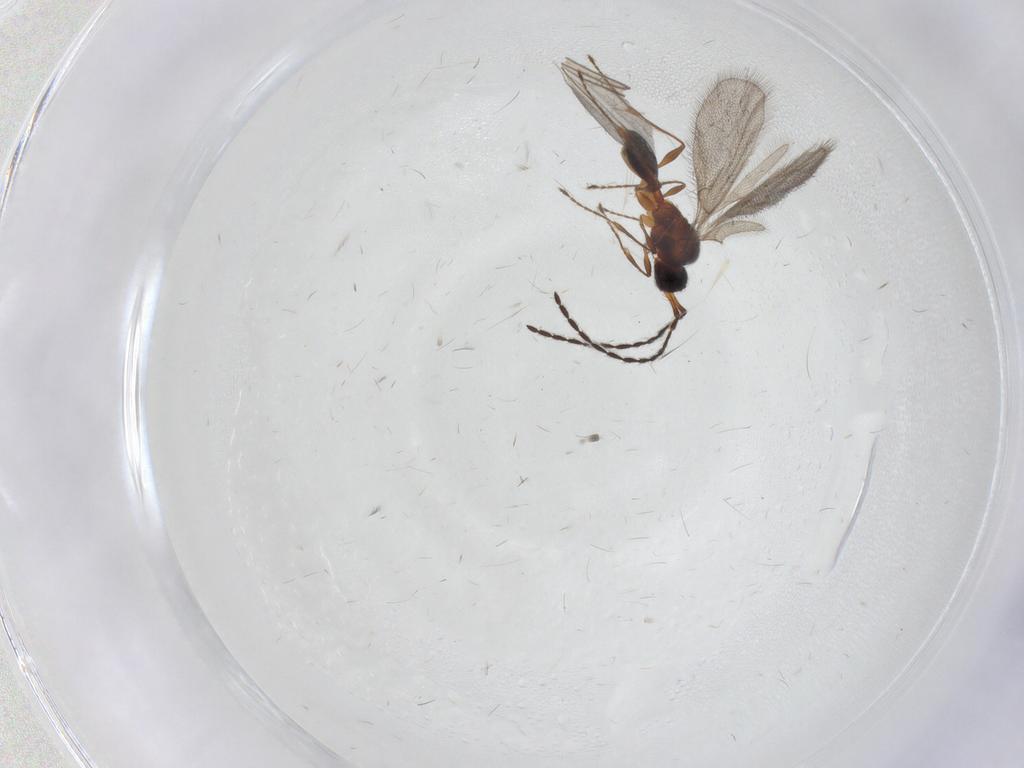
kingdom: Animalia
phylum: Arthropoda
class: Insecta
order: Hymenoptera
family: Diapriidae
